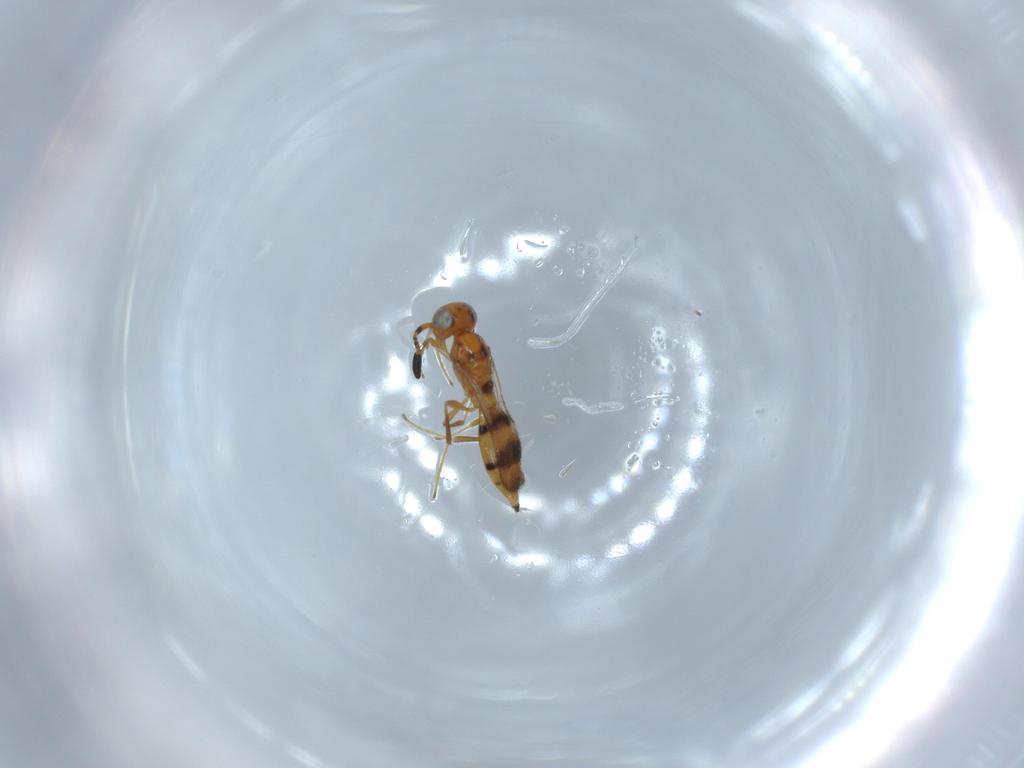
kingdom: Animalia
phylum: Arthropoda
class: Insecta
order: Hymenoptera
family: Scelionidae
